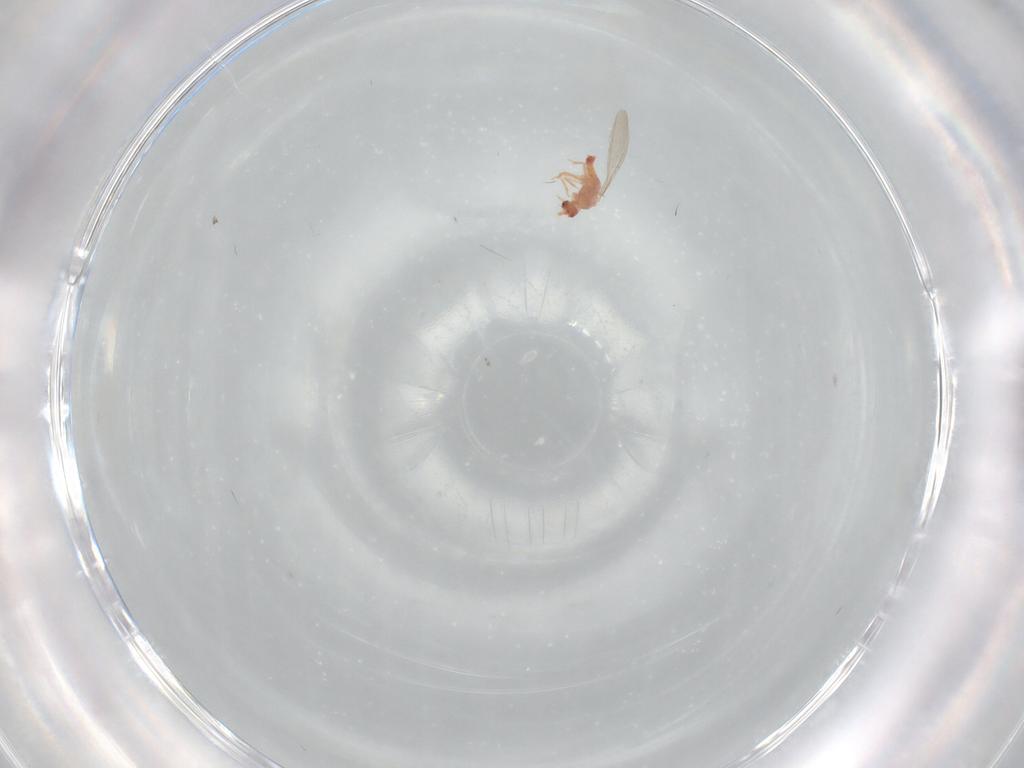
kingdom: Animalia
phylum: Arthropoda
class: Insecta
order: Hemiptera
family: Pseudococcidae
